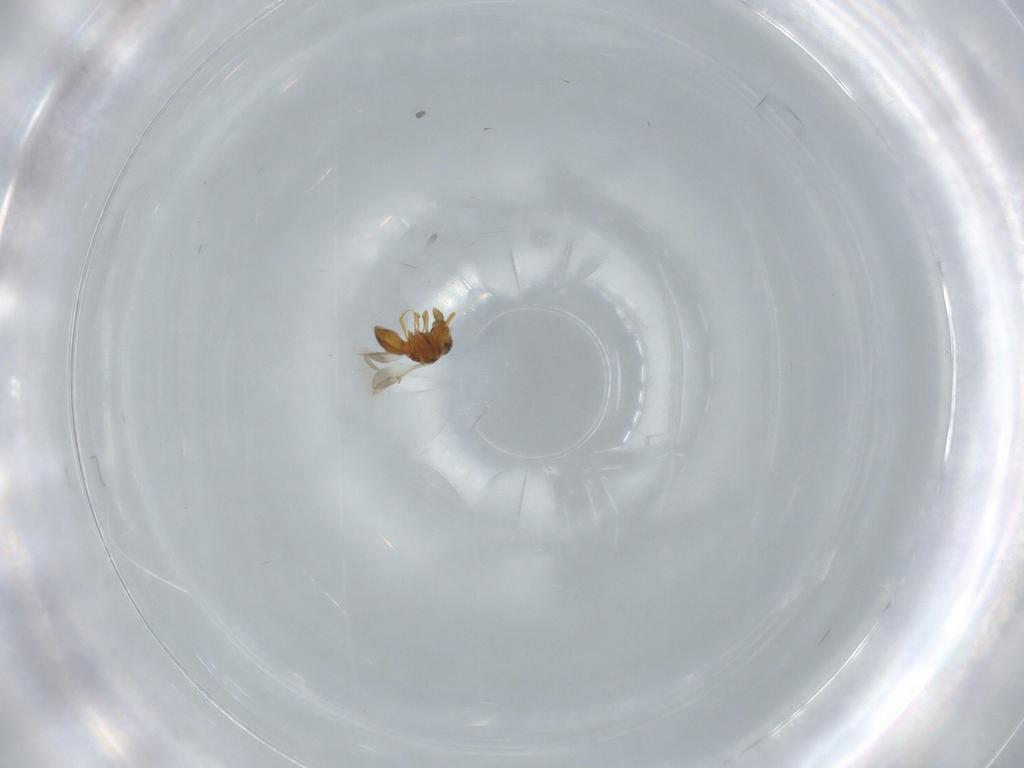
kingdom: Animalia
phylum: Arthropoda
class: Insecta
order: Hymenoptera
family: Scelionidae
